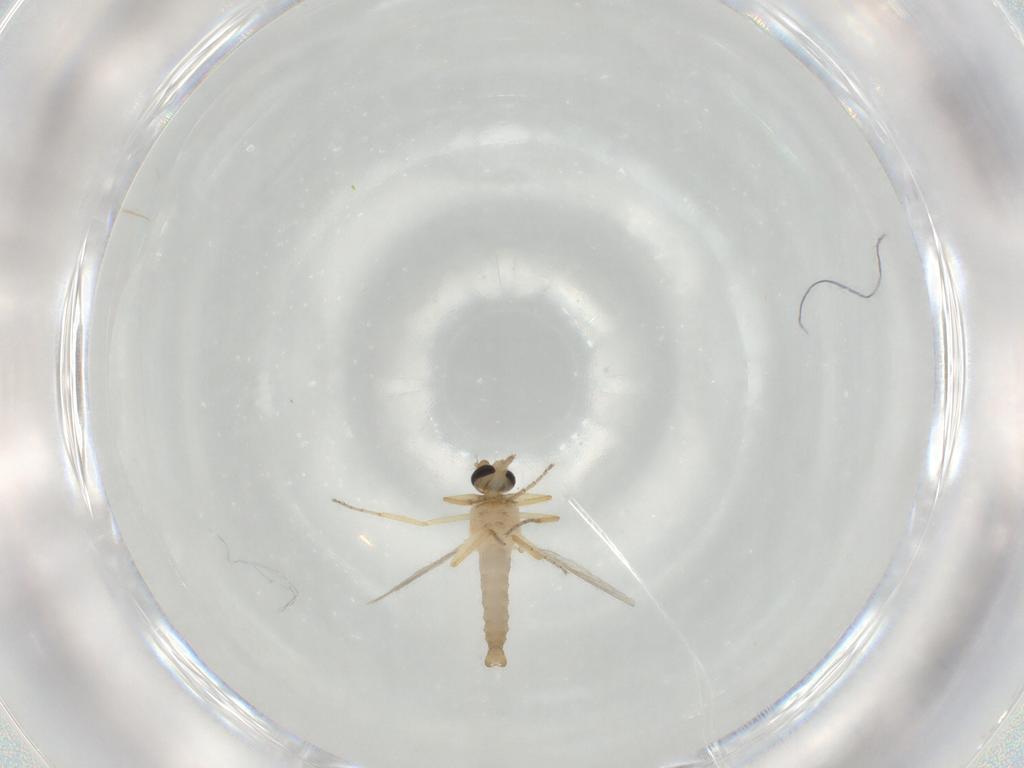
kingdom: Animalia
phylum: Arthropoda
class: Insecta
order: Diptera
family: Ceratopogonidae
